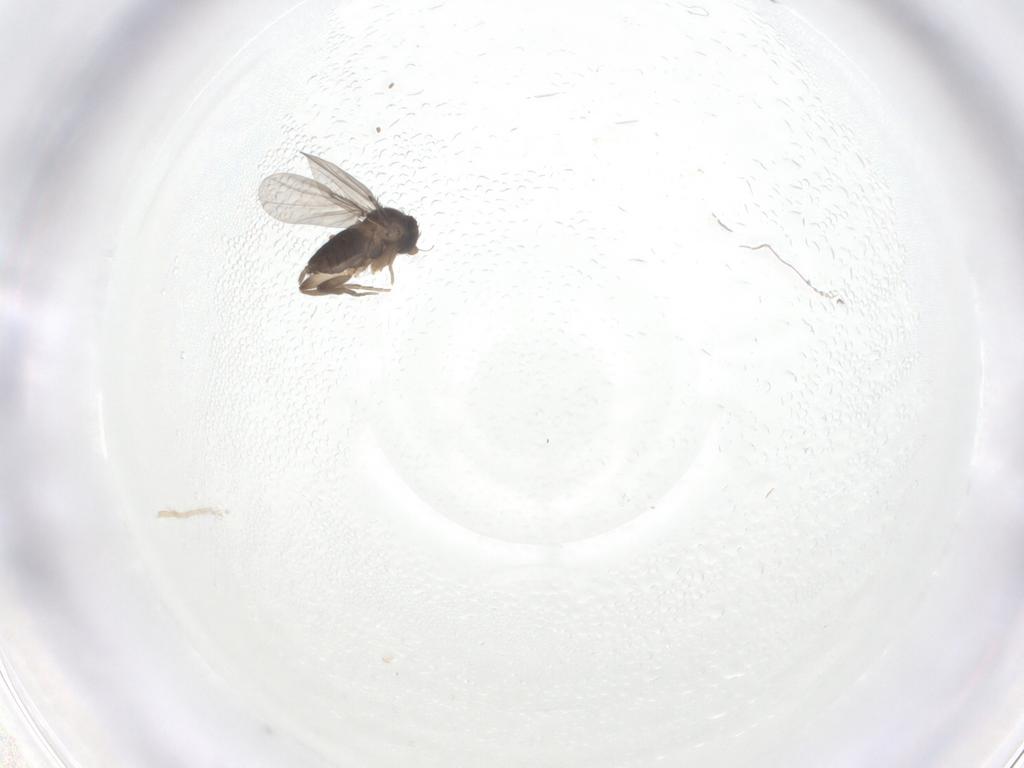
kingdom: Animalia
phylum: Arthropoda
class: Insecta
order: Diptera
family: Phoridae
